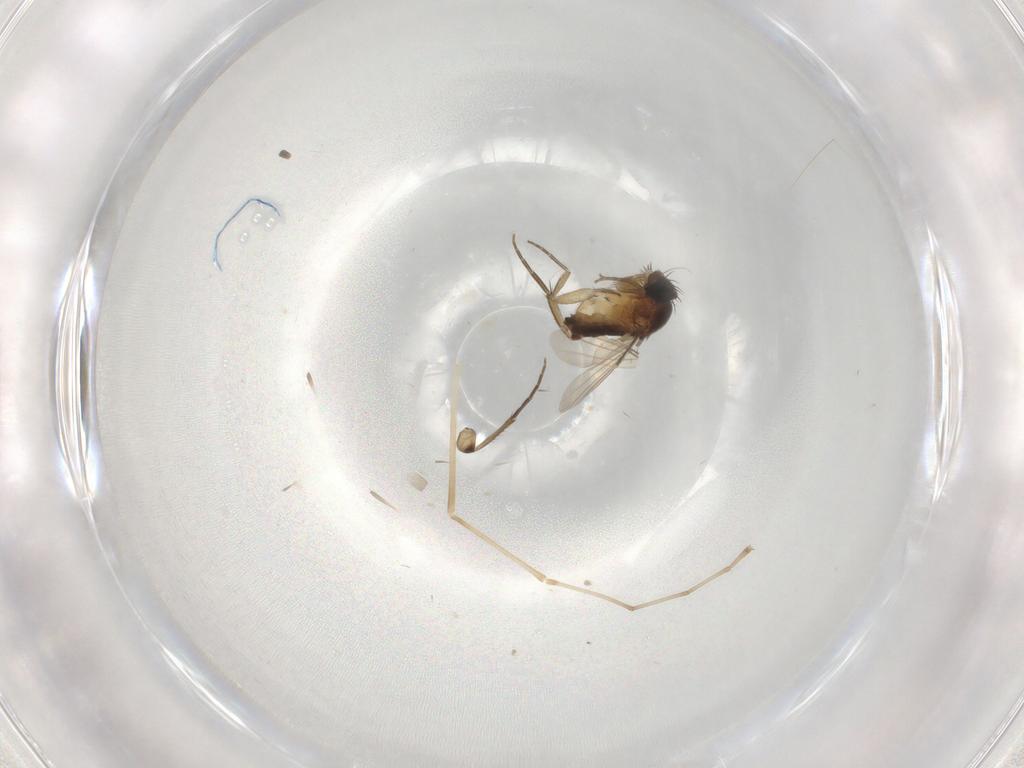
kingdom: Animalia
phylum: Arthropoda
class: Insecta
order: Diptera
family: Phoridae
